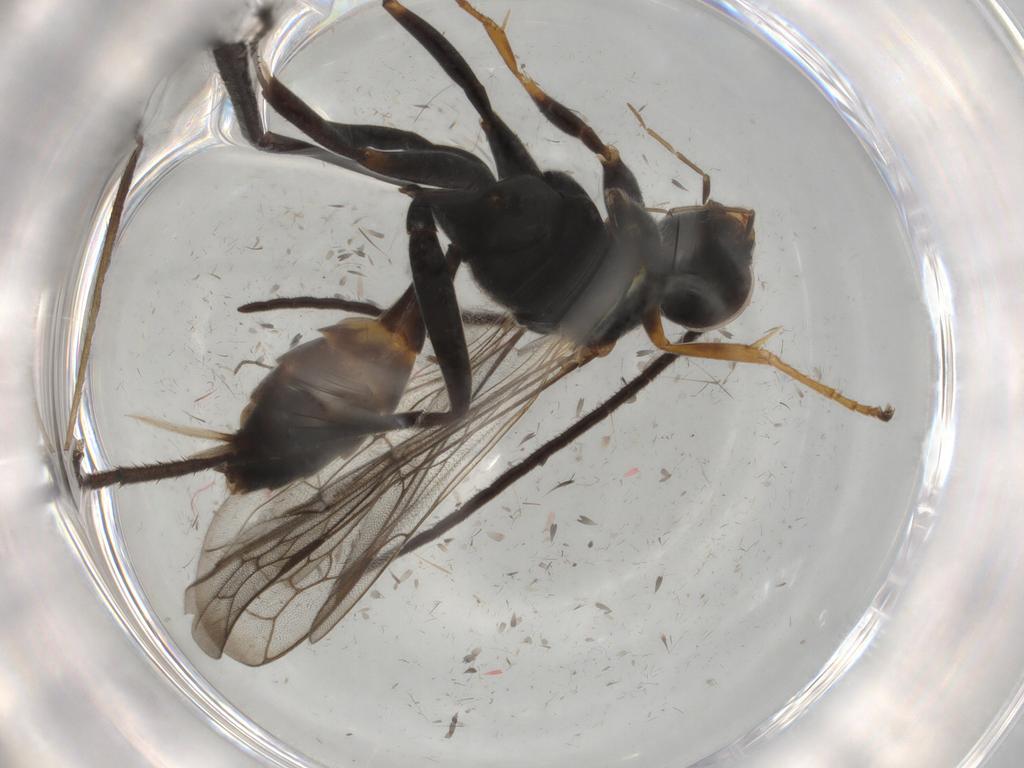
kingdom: Animalia
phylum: Arthropoda
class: Insecta
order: Hymenoptera
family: Pompilidae
